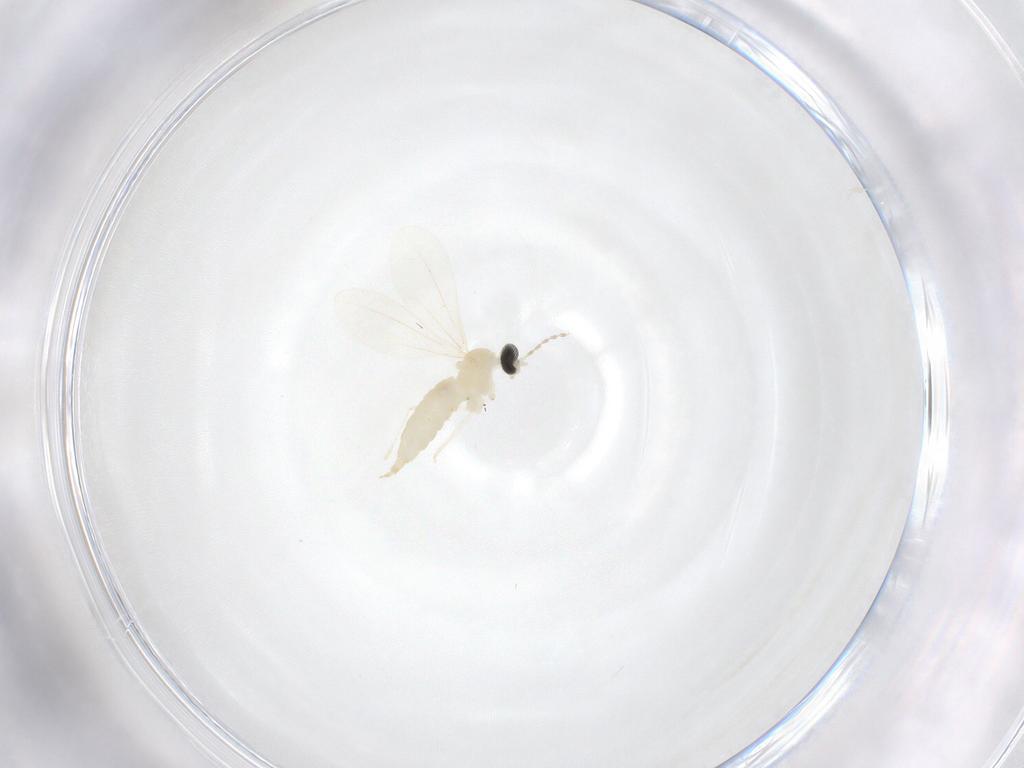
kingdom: Animalia
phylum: Arthropoda
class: Insecta
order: Diptera
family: Cecidomyiidae
